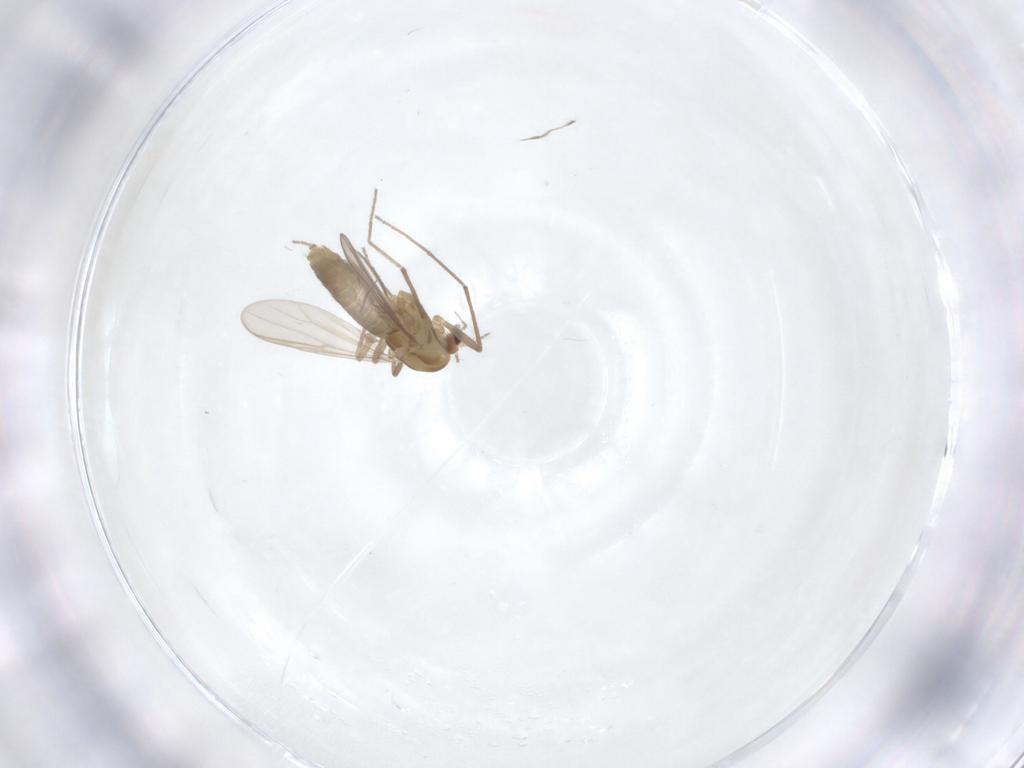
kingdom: Animalia
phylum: Arthropoda
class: Insecta
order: Diptera
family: Chironomidae
